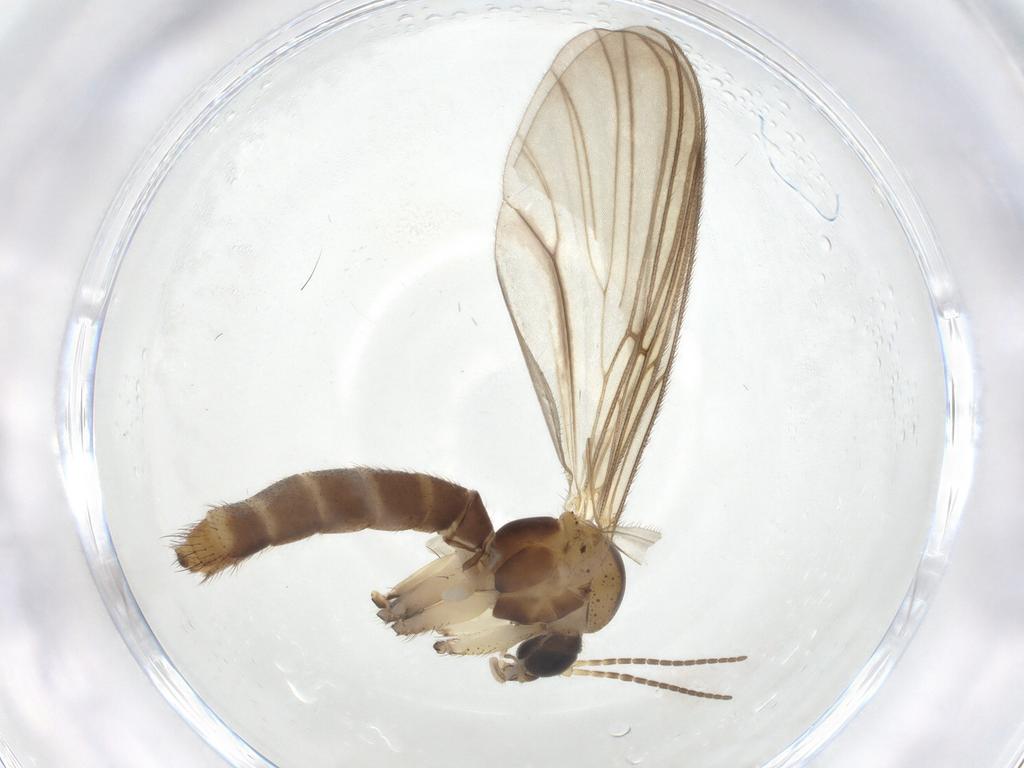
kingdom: Animalia
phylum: Arthropoda
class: Insecta
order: Diptera
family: Mycetophilidae
